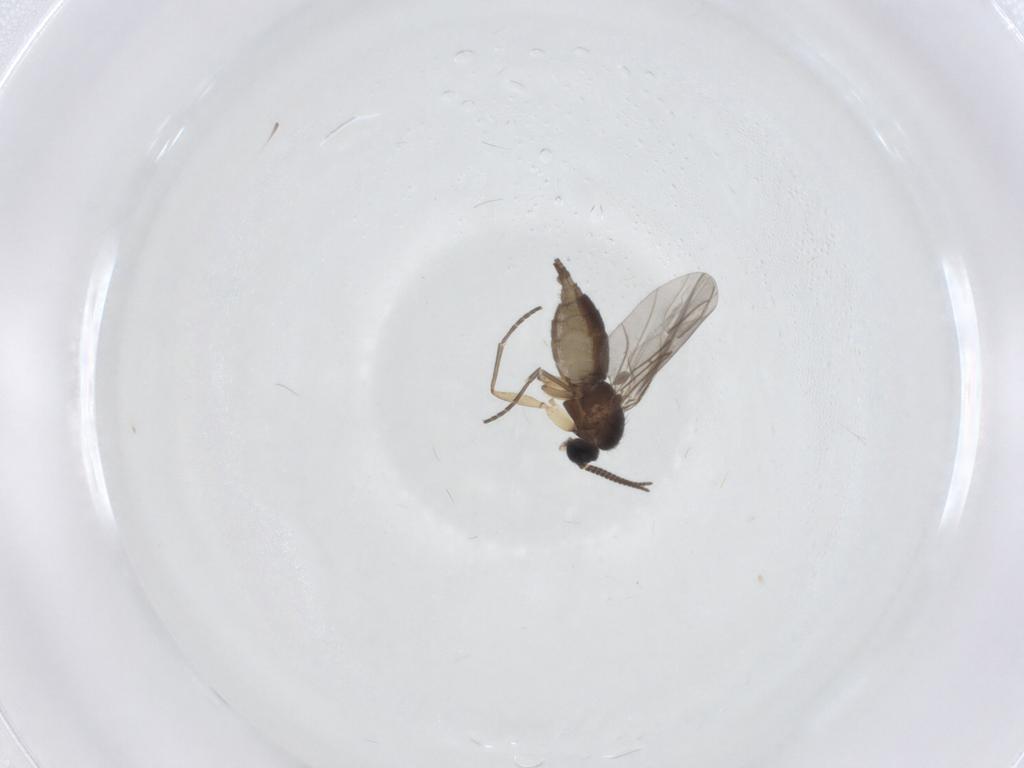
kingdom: Animalia
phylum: Arthropoda
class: Insecta
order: Diptera
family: Sciaridae
